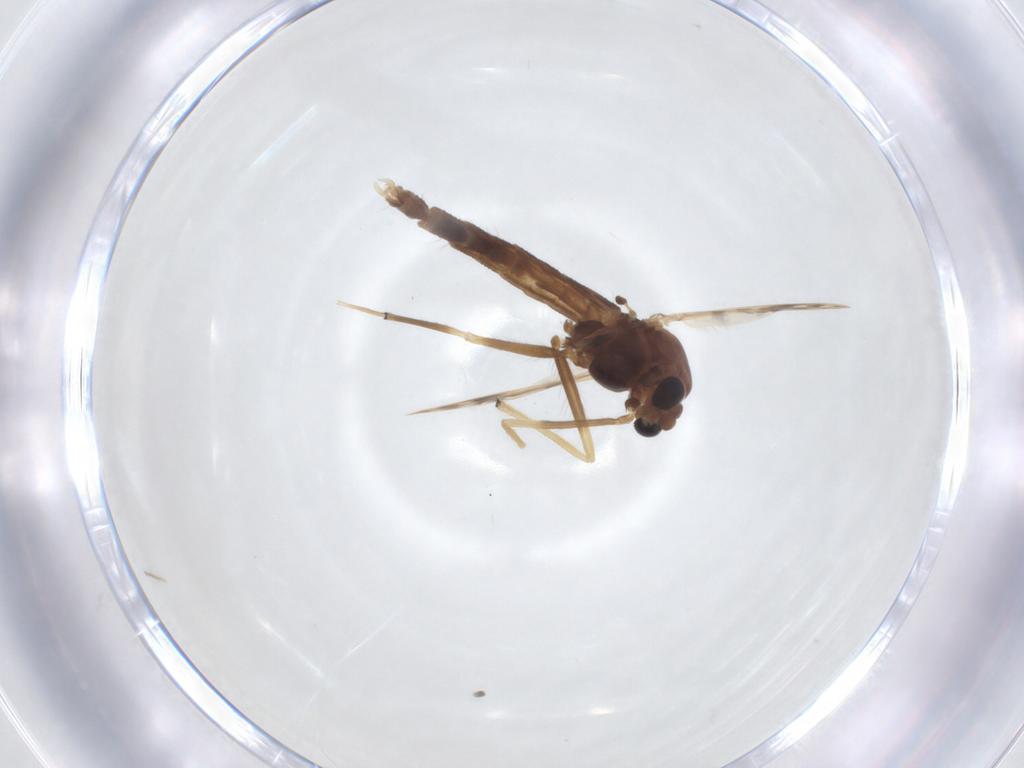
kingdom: Animalia
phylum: Arthropoda
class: Insecta
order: Diptera
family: Chironomidae
